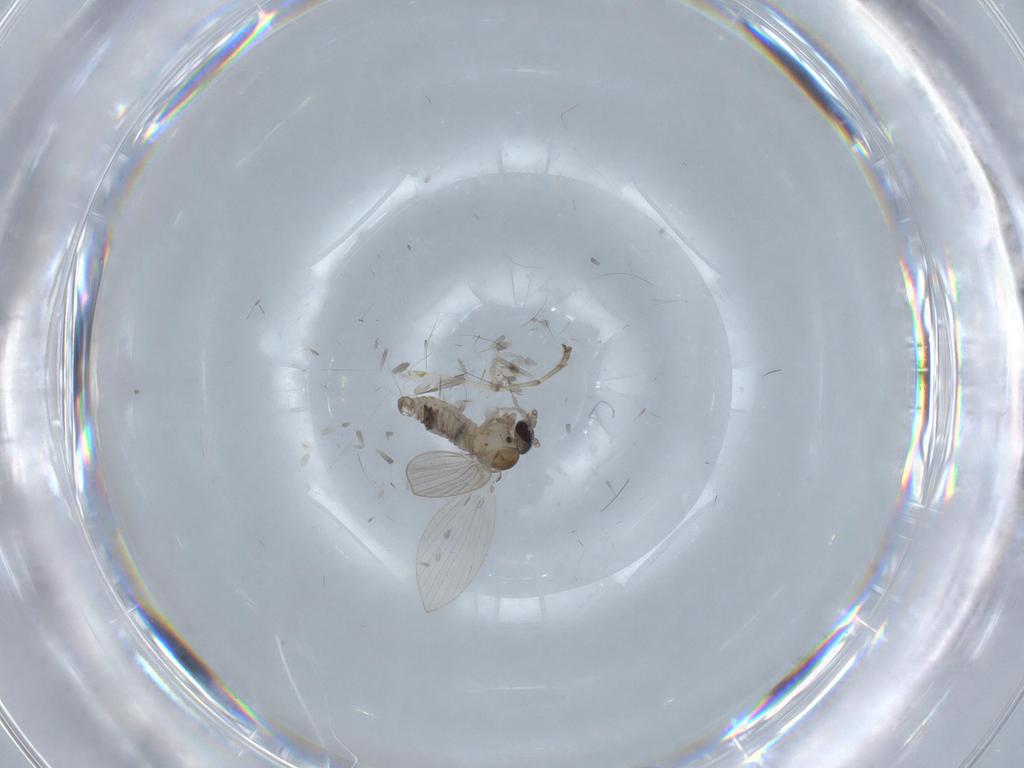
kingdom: Animalia
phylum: Arthropoda
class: Insecta
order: Diptera
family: Psychodidae
